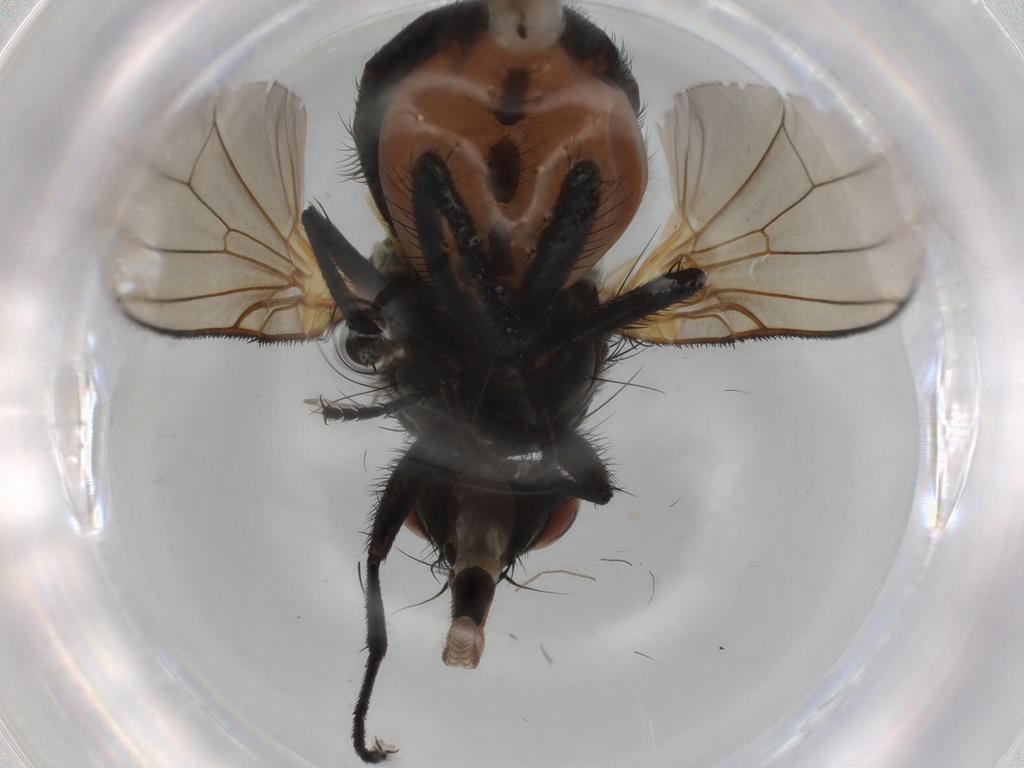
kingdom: Animalia
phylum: Arthropoda
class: Insecta
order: Diptera
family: Anthomyiidae
